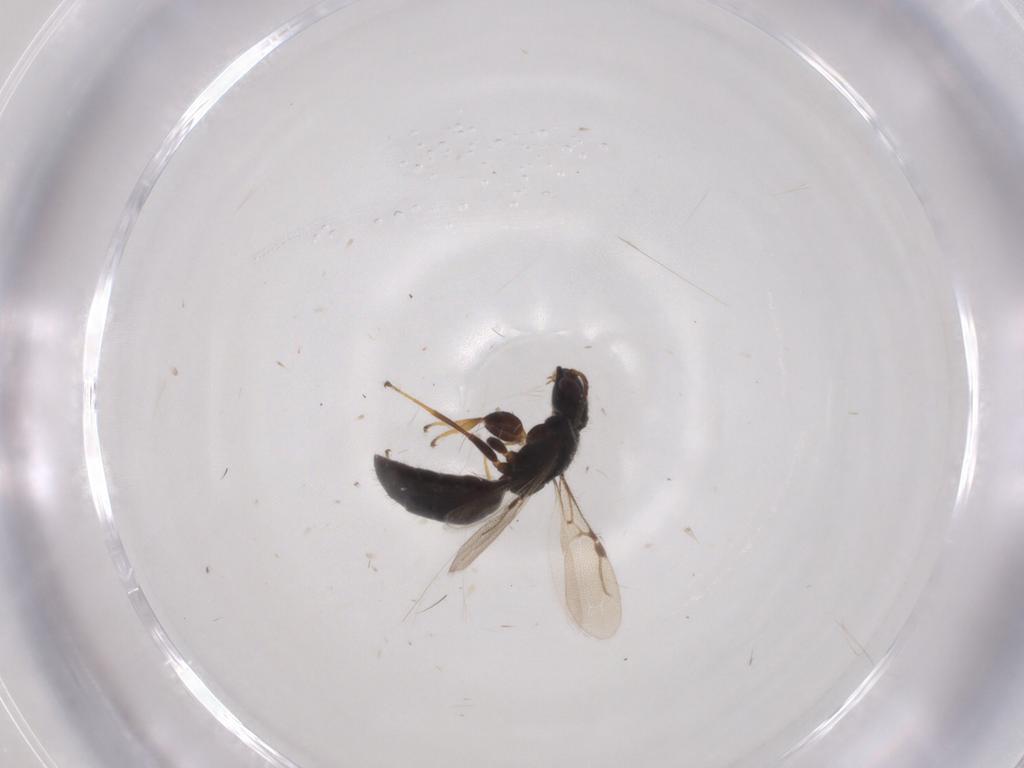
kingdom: Animalia
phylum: Arthropoda
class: Insecta
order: Hymenoptera
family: Bethylidae
